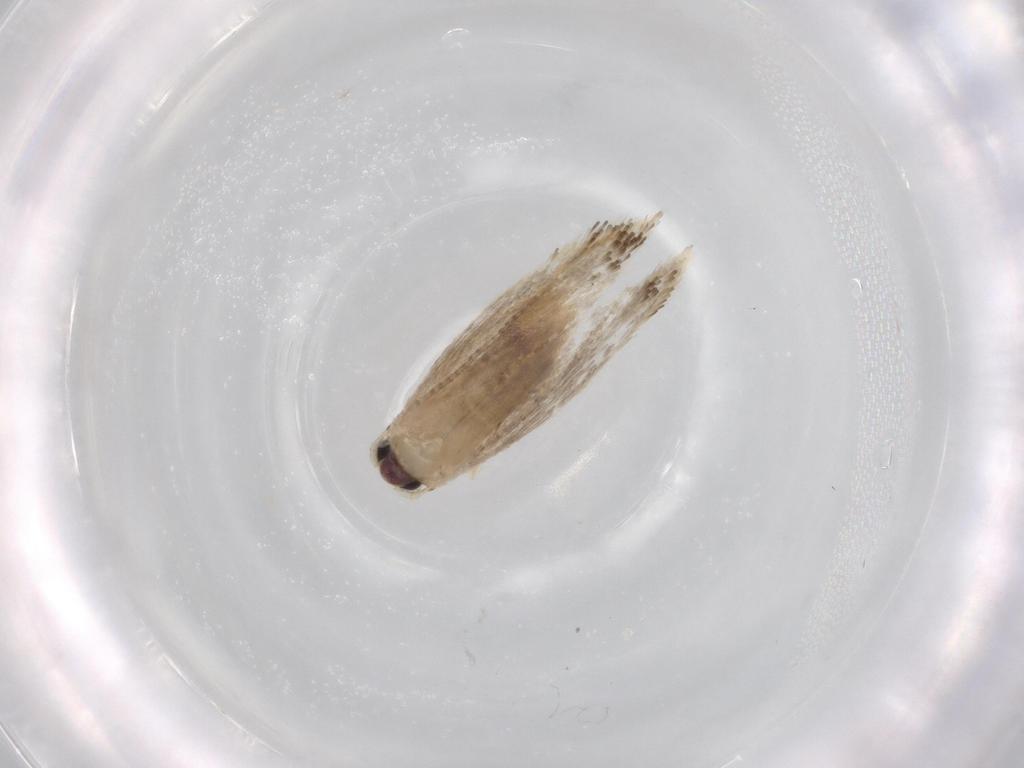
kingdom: Animalia
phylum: Arthropoda
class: Insecta
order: Lepidoptera
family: Nepticulidae
